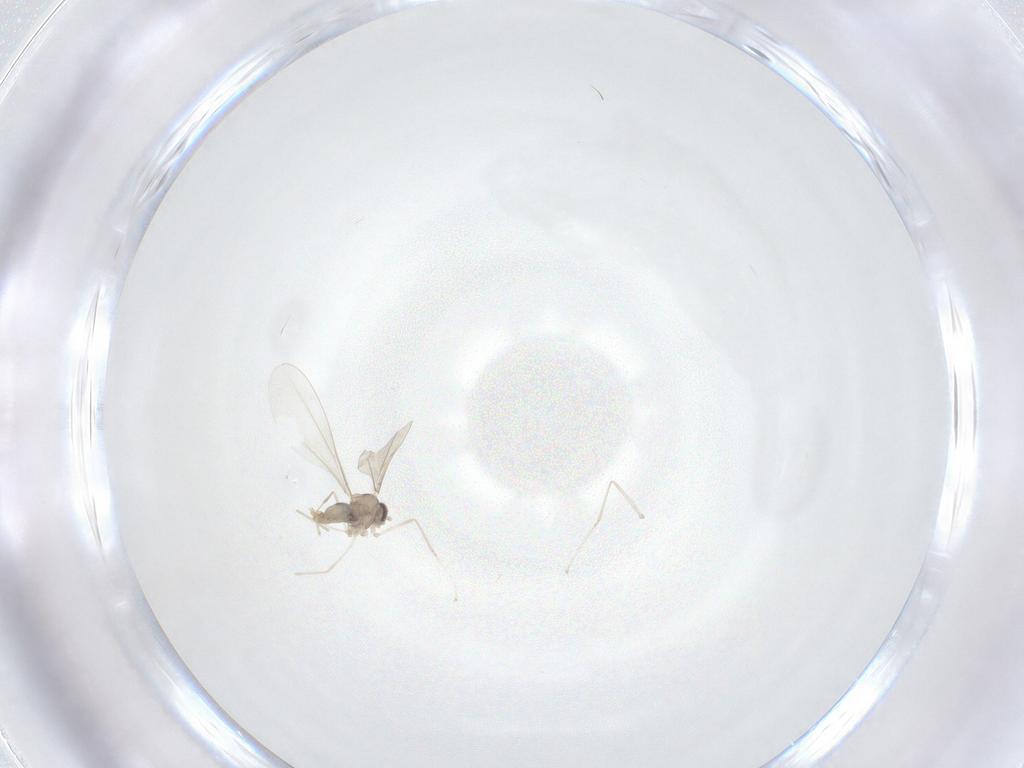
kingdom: Animalia
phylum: Arthropoda
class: Insecta
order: Diptera
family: Cecidomyiidae
